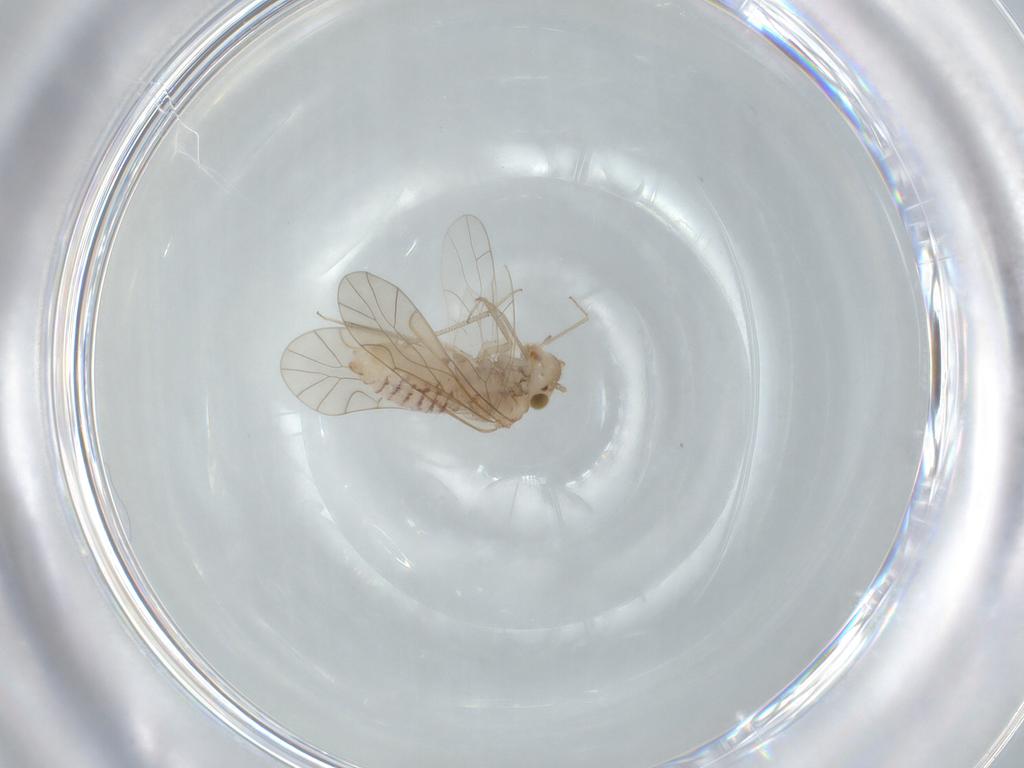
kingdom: Animalia
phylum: Arthropoda
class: Insecta
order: Psocodea
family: Lachesillidae
